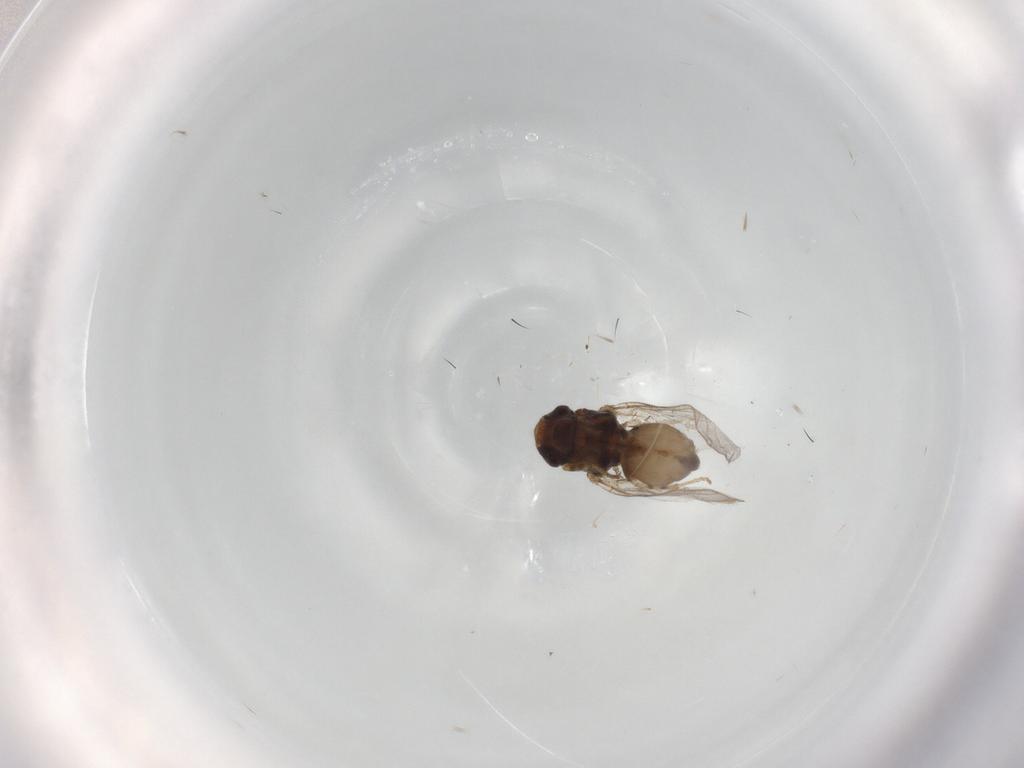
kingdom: Animalia
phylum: Arthropoda
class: Insecta
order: Diptera
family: Chloropidae
